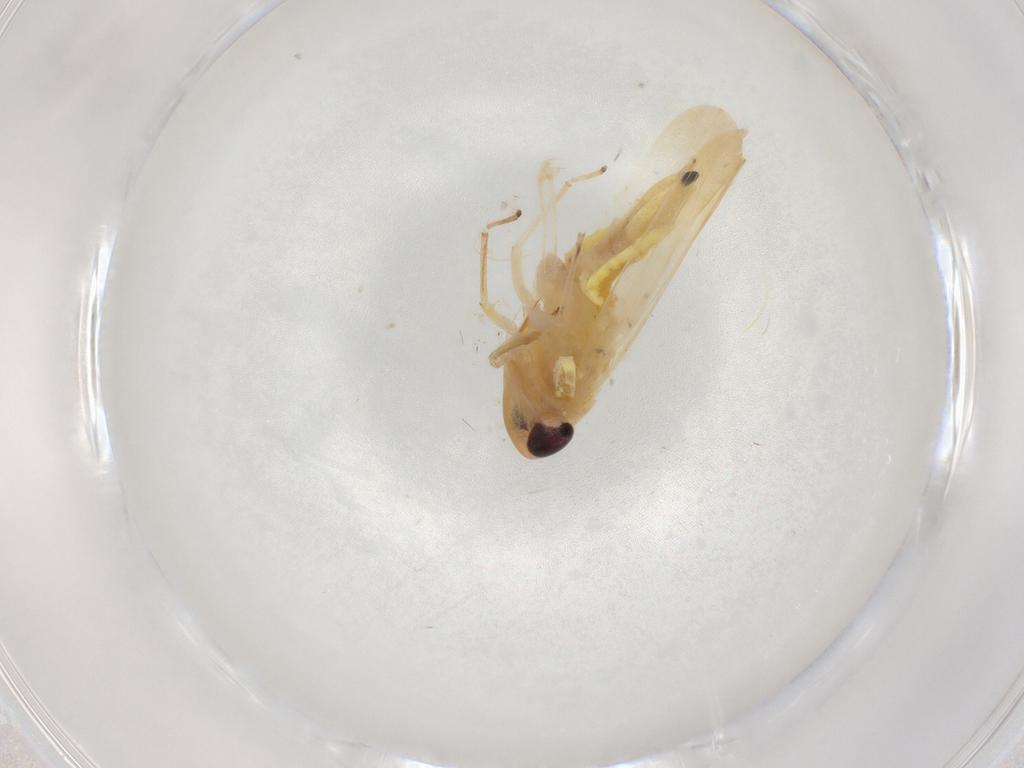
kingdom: Animalia
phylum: Arthropoda
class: Insecta
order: Hemiptera
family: Cicadellidae
